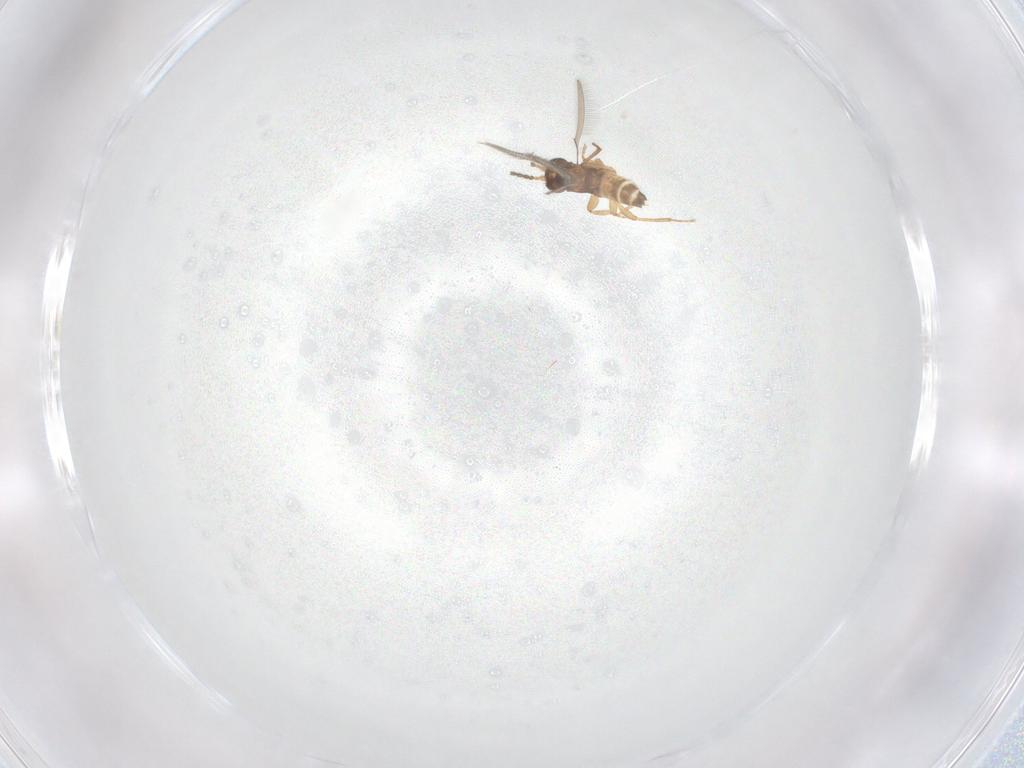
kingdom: Animalia
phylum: Arthropoda
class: Insecta
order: Hymenoptera
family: Mymaridae
